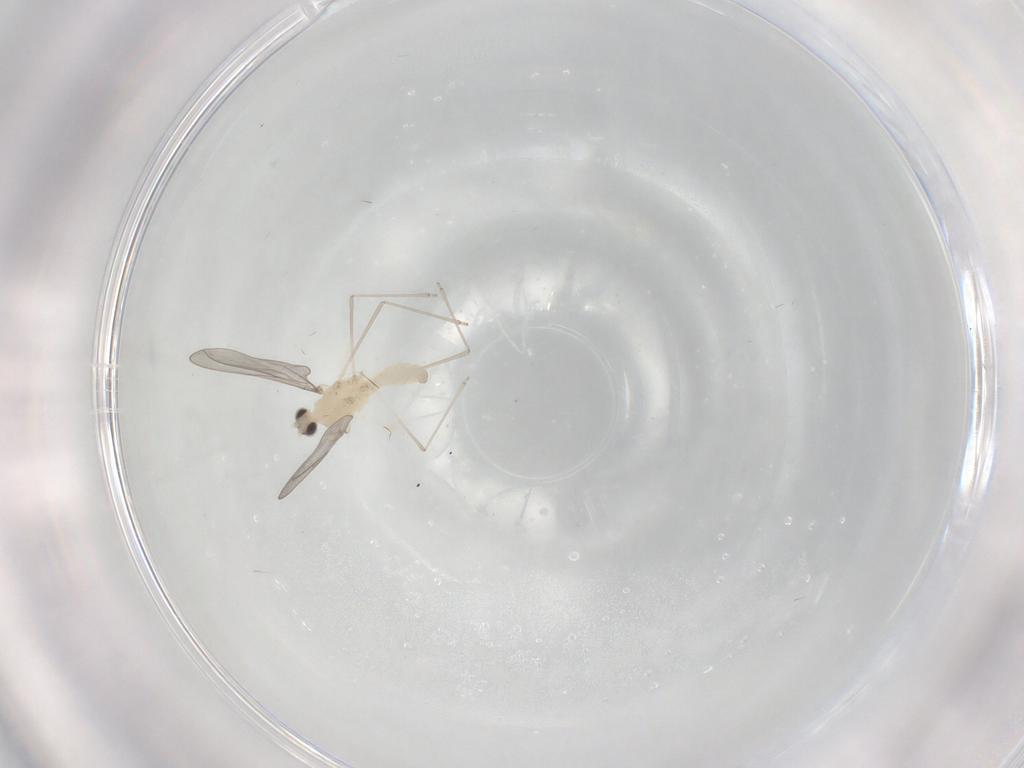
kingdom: Animalia
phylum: Arthropoda
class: Insecta
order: Diptera
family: Cecidomyiidae
